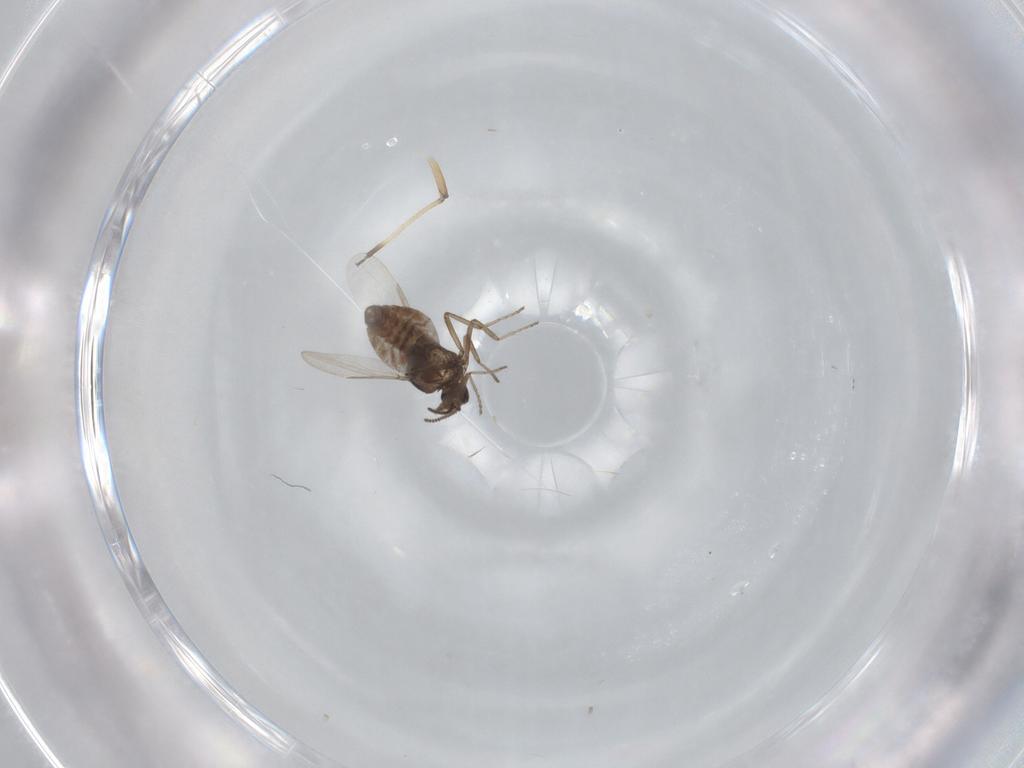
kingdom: Animalia
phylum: Arthropoda
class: Insecta
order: Diptera
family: Ceratopogonidae
